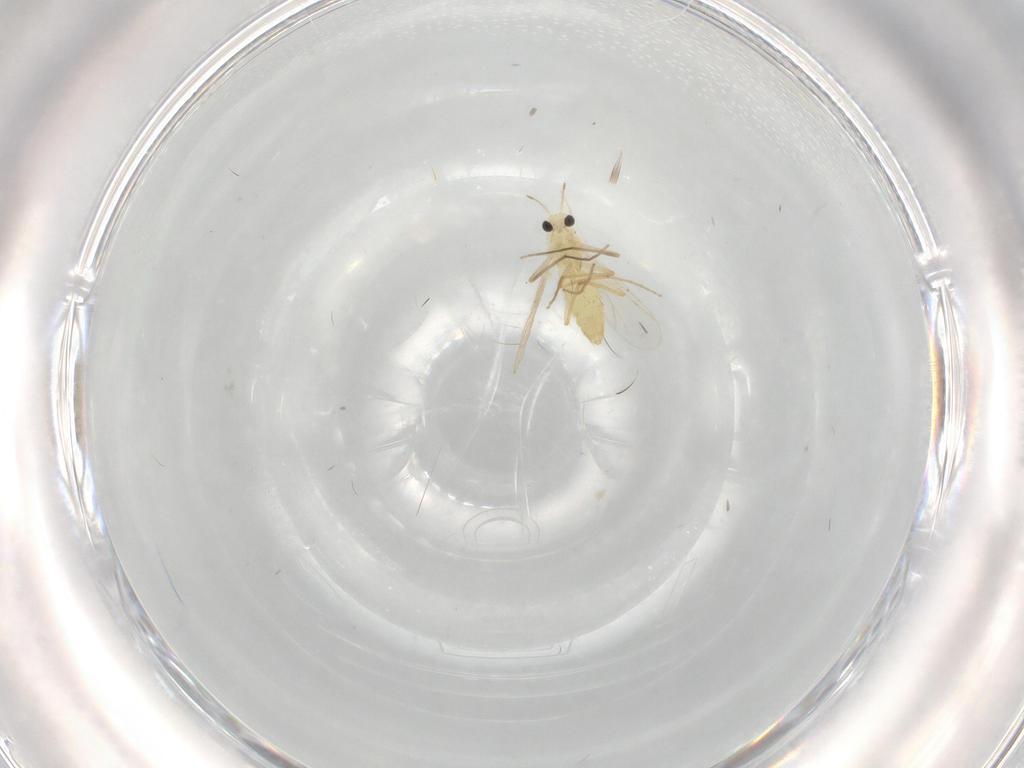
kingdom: Animalia
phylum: Arthropoda
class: Insecta
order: Diptera
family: Chironomidae
